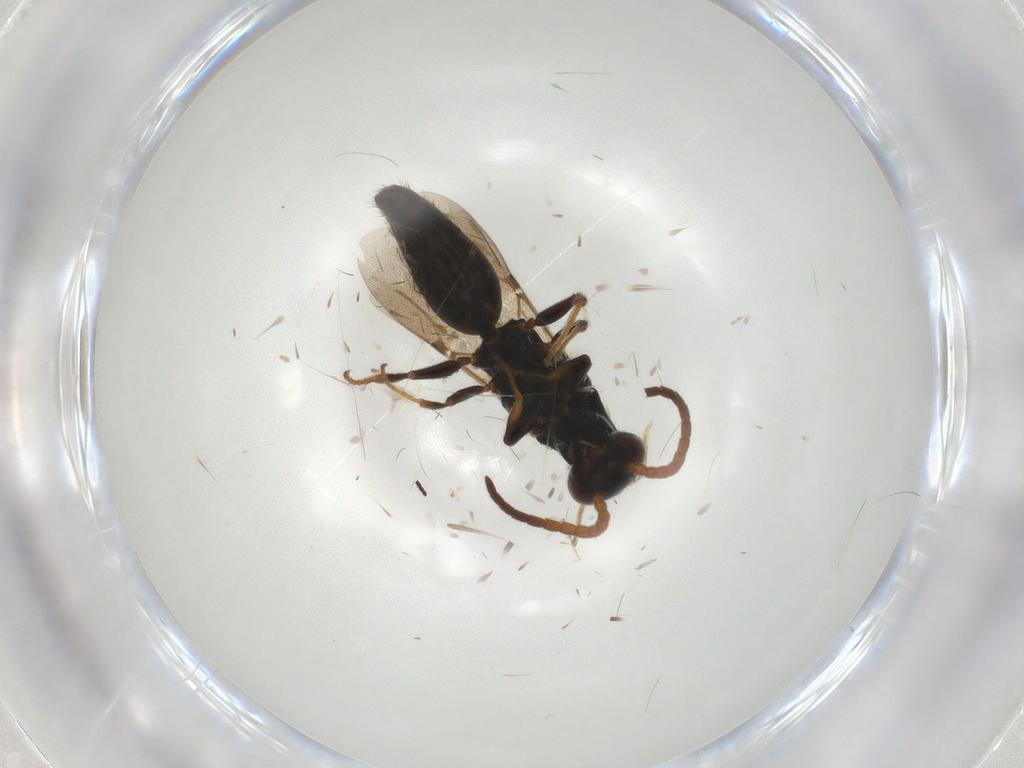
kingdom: Animalia
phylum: Arthropoda
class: Insecta
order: Hymenoptera
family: Bethylidae
